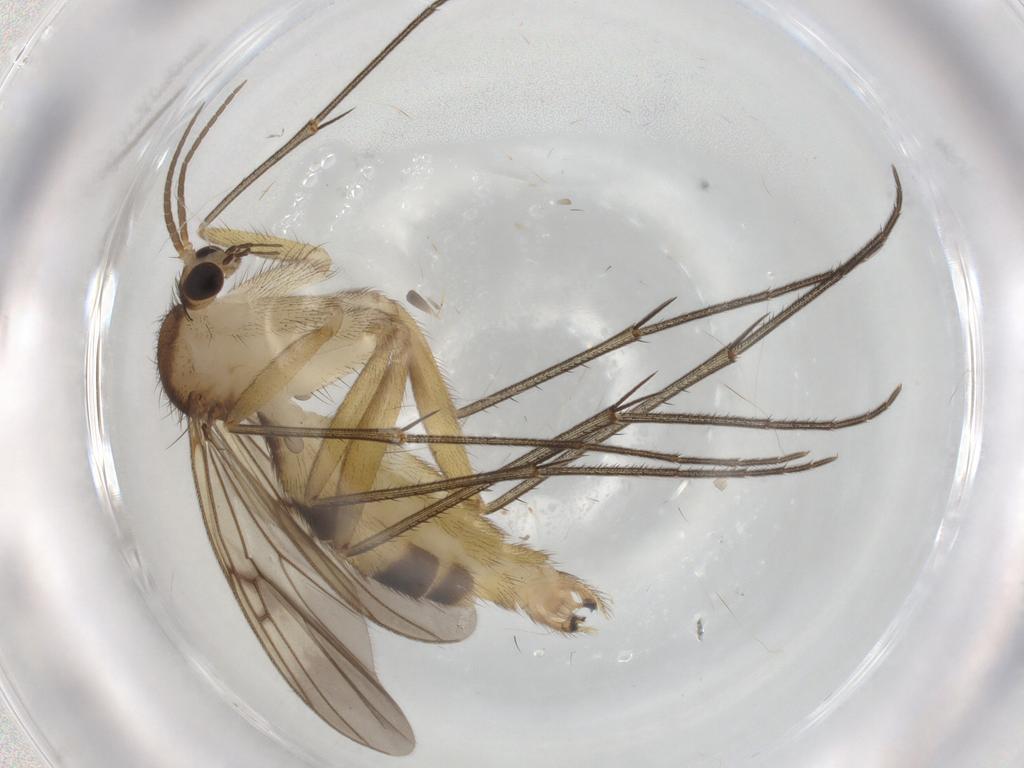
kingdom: Animalia
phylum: Arthropoda
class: Insecta
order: Diptera
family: Mycetophilidae
